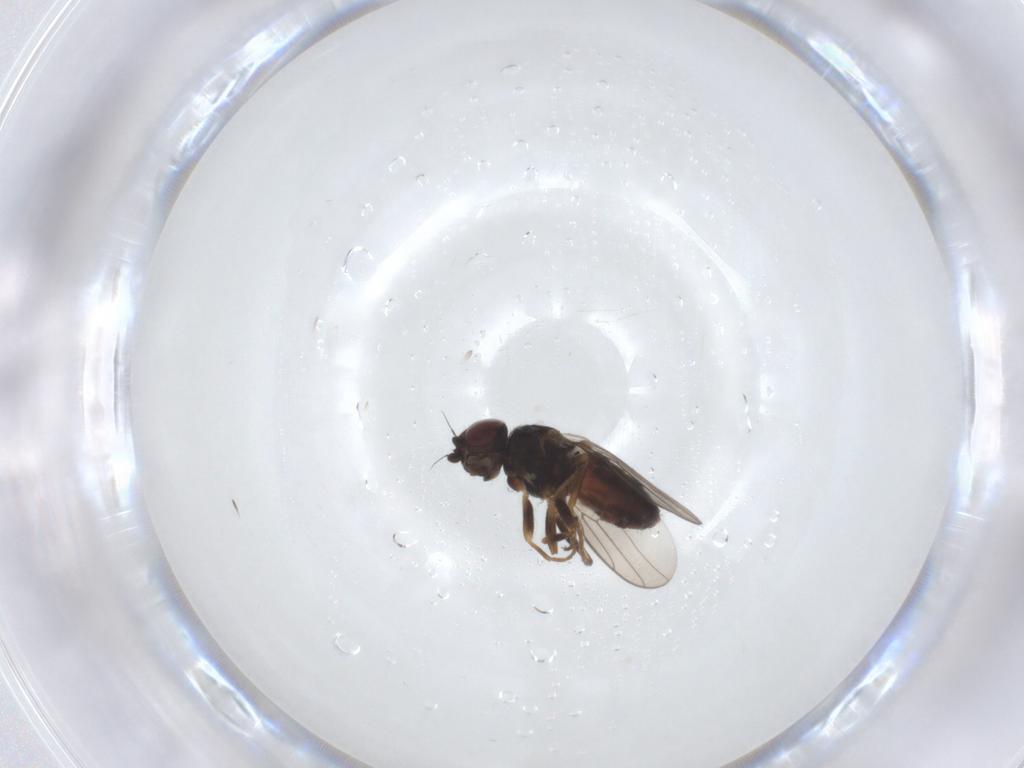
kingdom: Animalia
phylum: Arthropoda
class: Insecta
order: Diptera
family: Chloropidae
